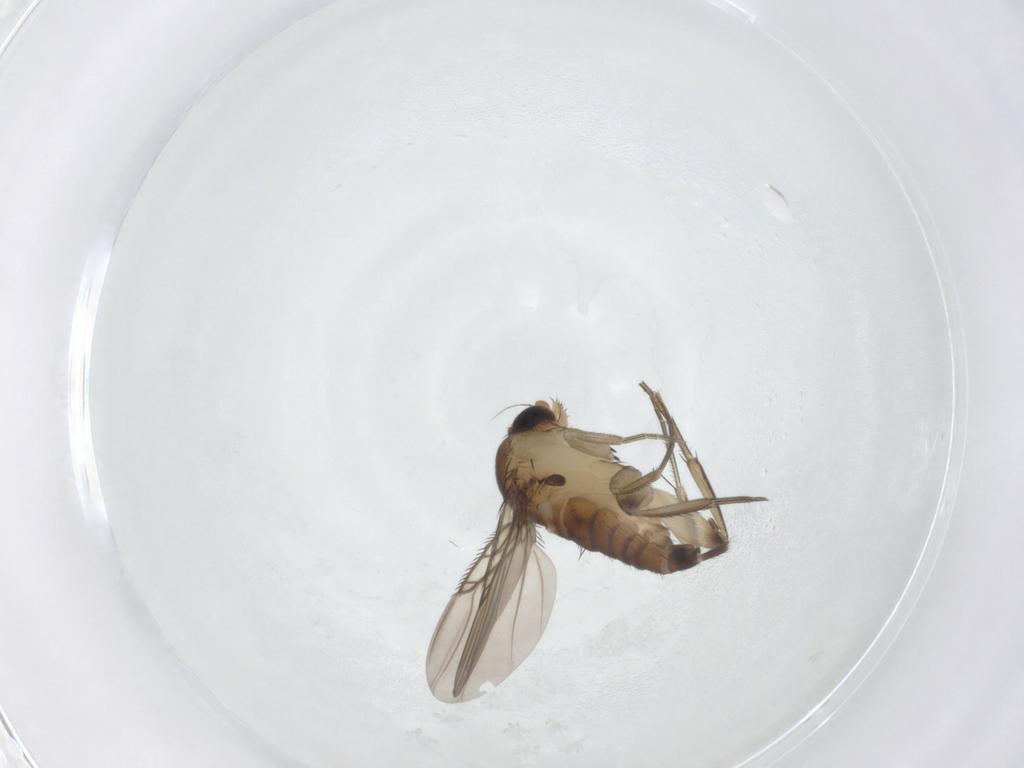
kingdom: Animalia
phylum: Arthropoda
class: Insecta
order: Diptera
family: Phoridae
